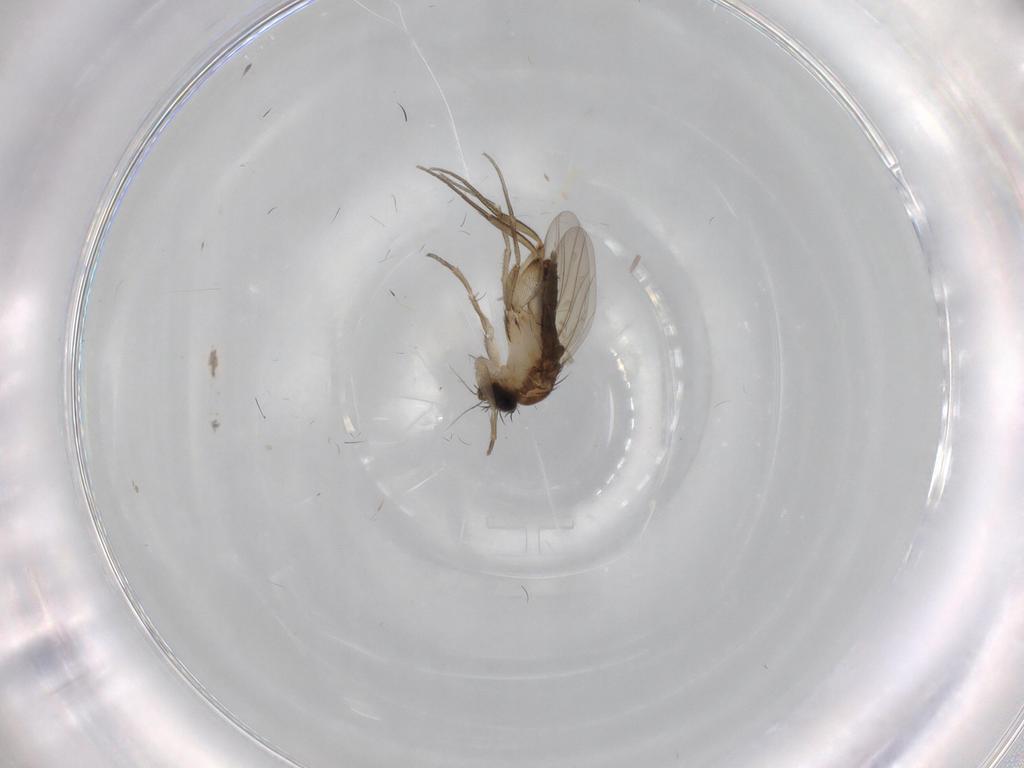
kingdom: Animalia
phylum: Arthropoda
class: Insecta
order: Diptera
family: Phoridae
